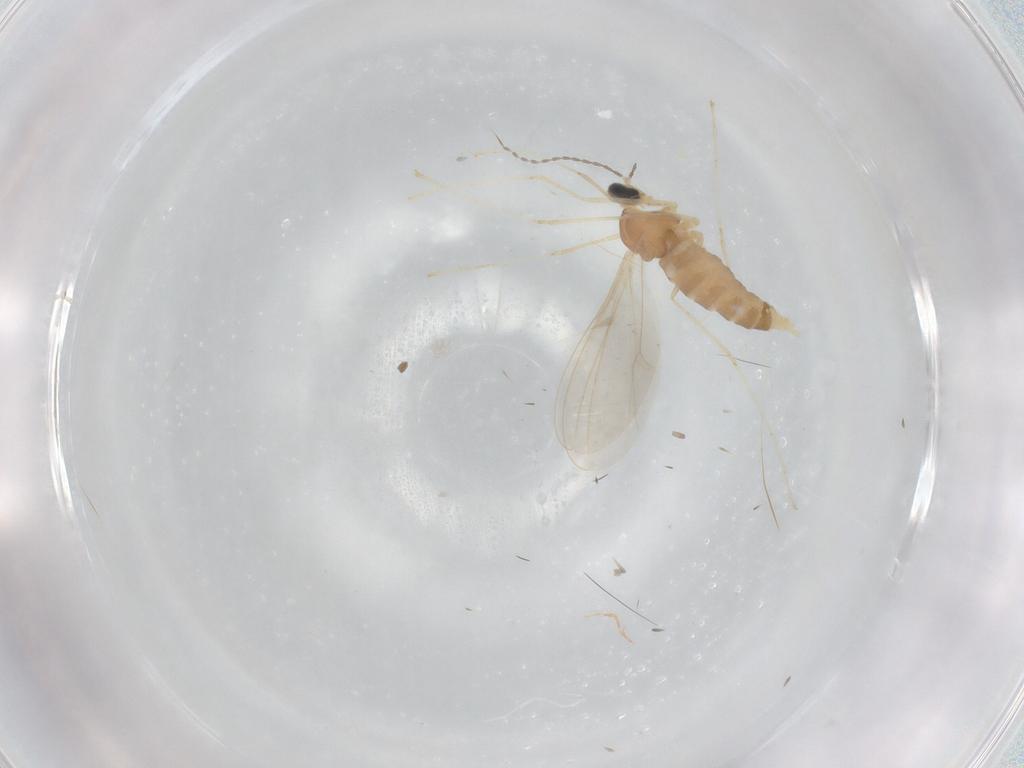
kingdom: Animalia
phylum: Arthropoda
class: Insecta
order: Diptera
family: Cecidomyiidae
